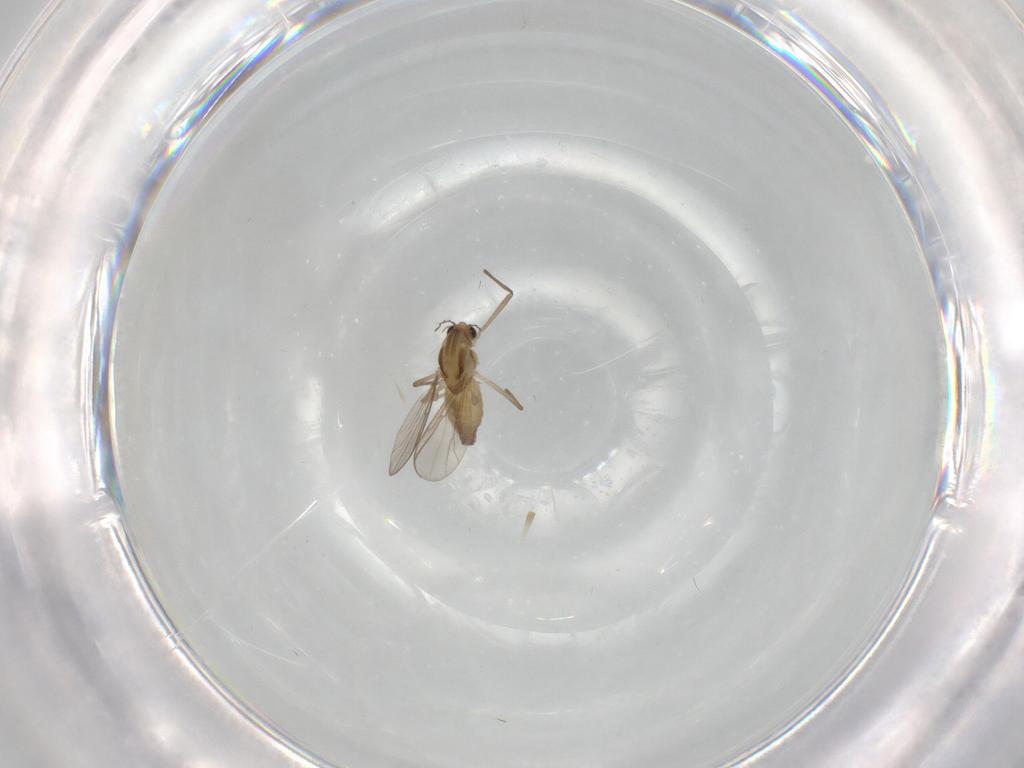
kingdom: Animalia
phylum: Arthropoda
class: Insecta
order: Diptera
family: Chironomidae
